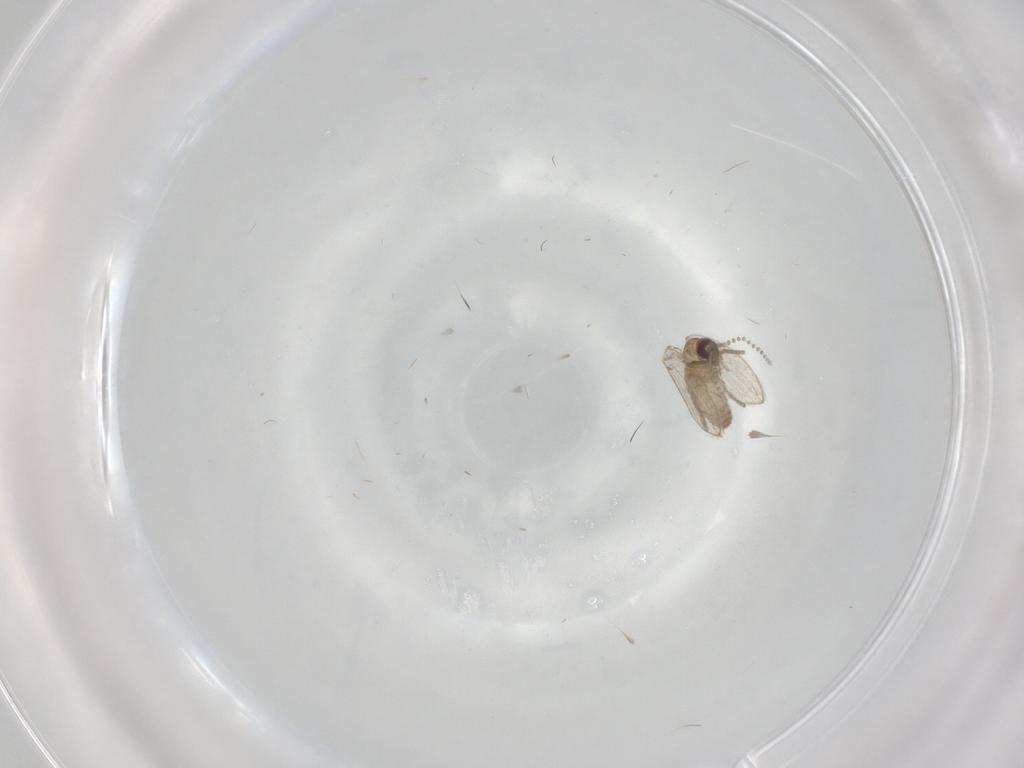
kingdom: Animalia
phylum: Arthropoda
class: Insecta
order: Diptera
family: Psychodidae
